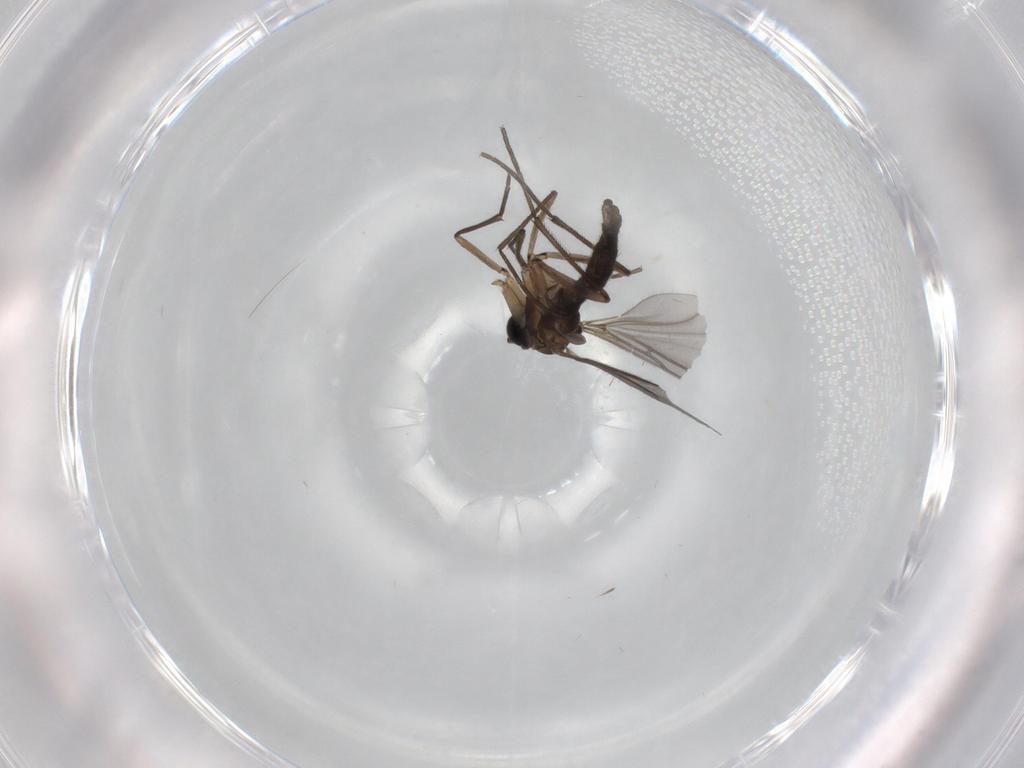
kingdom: Animalia
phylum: Arthropoda
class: Insecta
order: Diptera
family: Sciaridae
